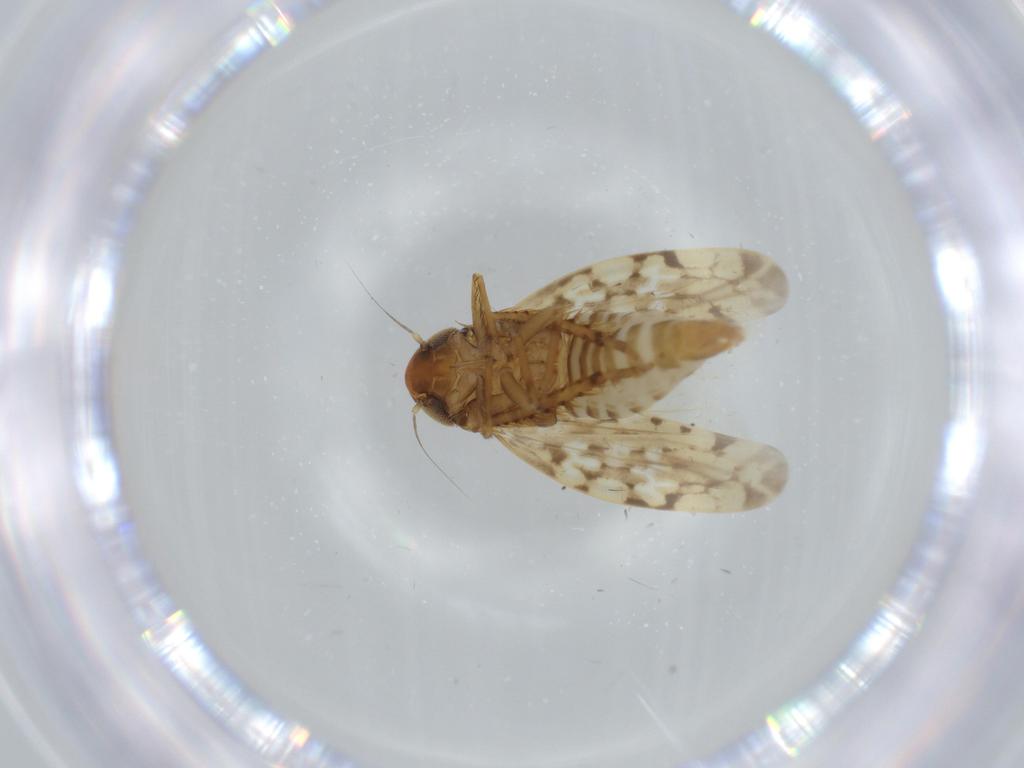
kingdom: Animalia
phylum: Arthropoda
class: Insecta
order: Hemiptera
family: Cicadellidae
